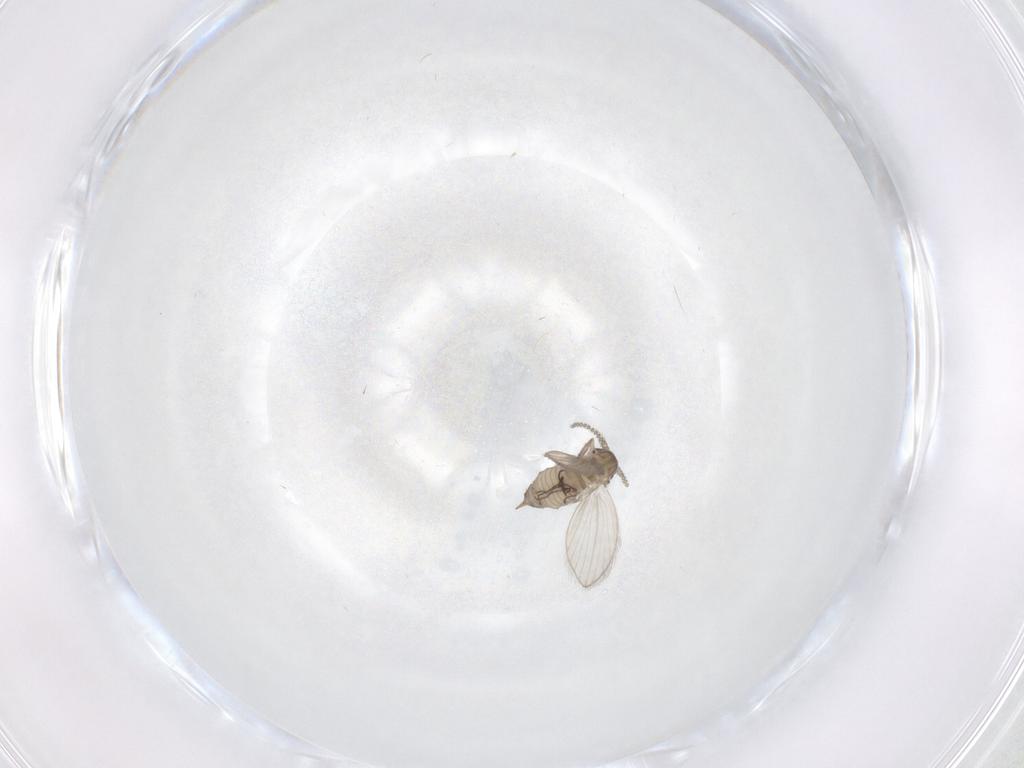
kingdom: Animalia
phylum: Arthropoda
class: Insecta
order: Diptera
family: Psychodidae
